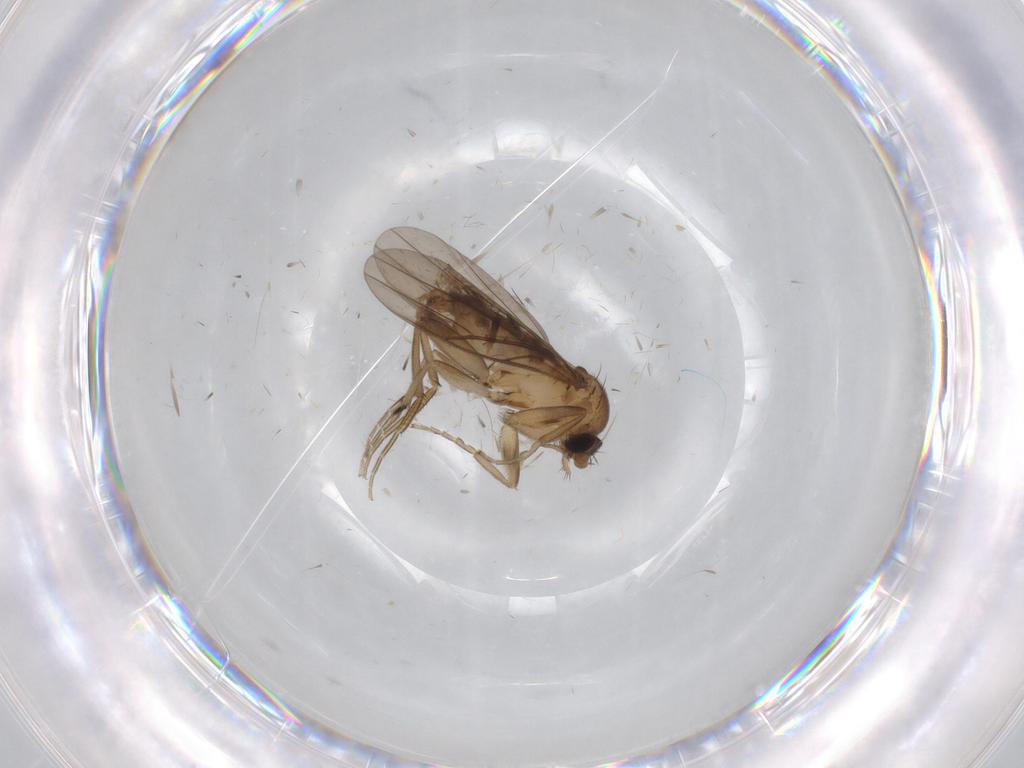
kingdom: Animalia
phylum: Arthropoda
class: Insecta
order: Diptera
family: Phoridae
